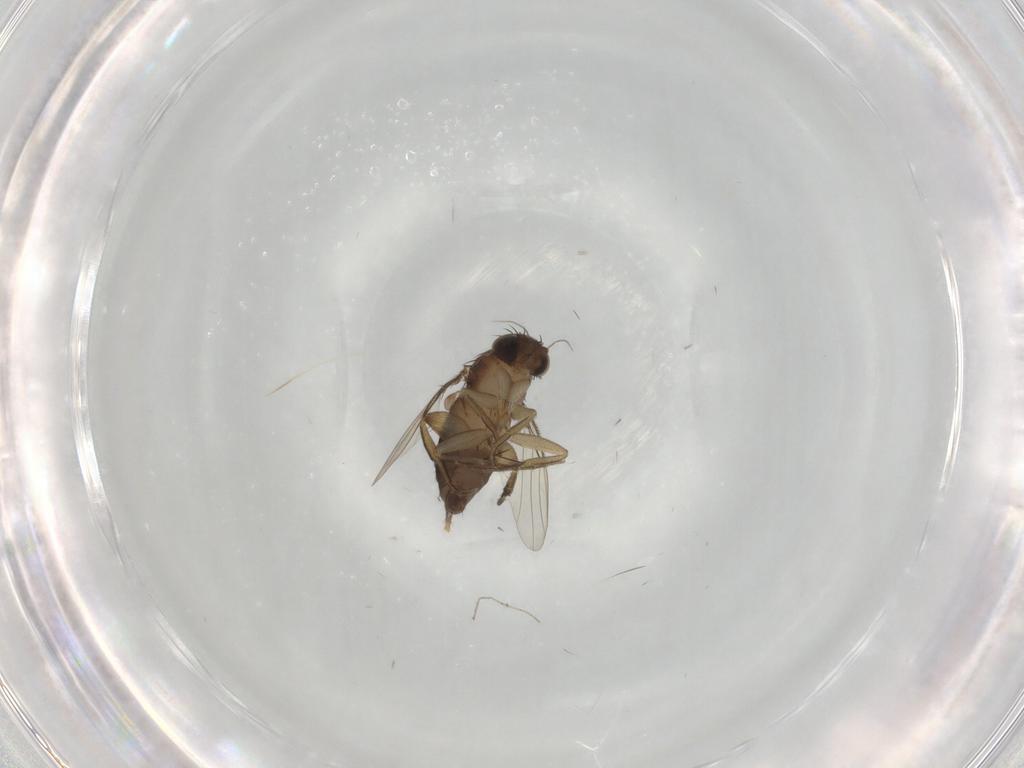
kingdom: Animalia
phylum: Arthropoda
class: Insecta
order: Diptera
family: Phoridae
